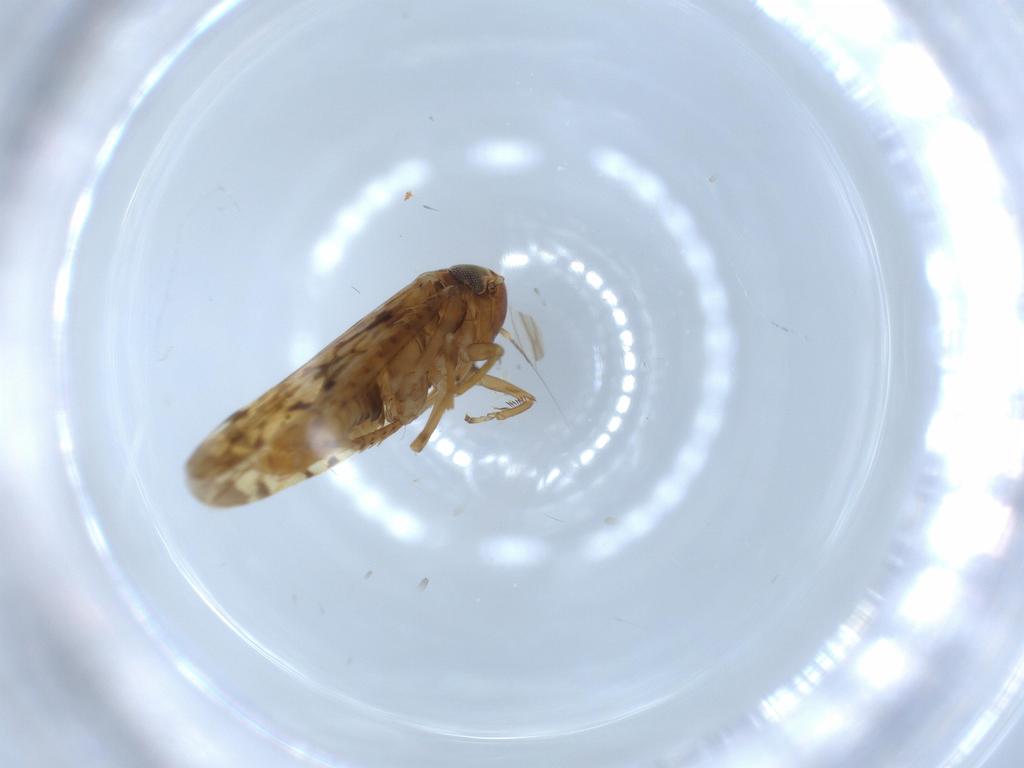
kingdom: Animalia
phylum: Arthropoda
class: Insecta
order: Hemiptera
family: Cicadellidae
